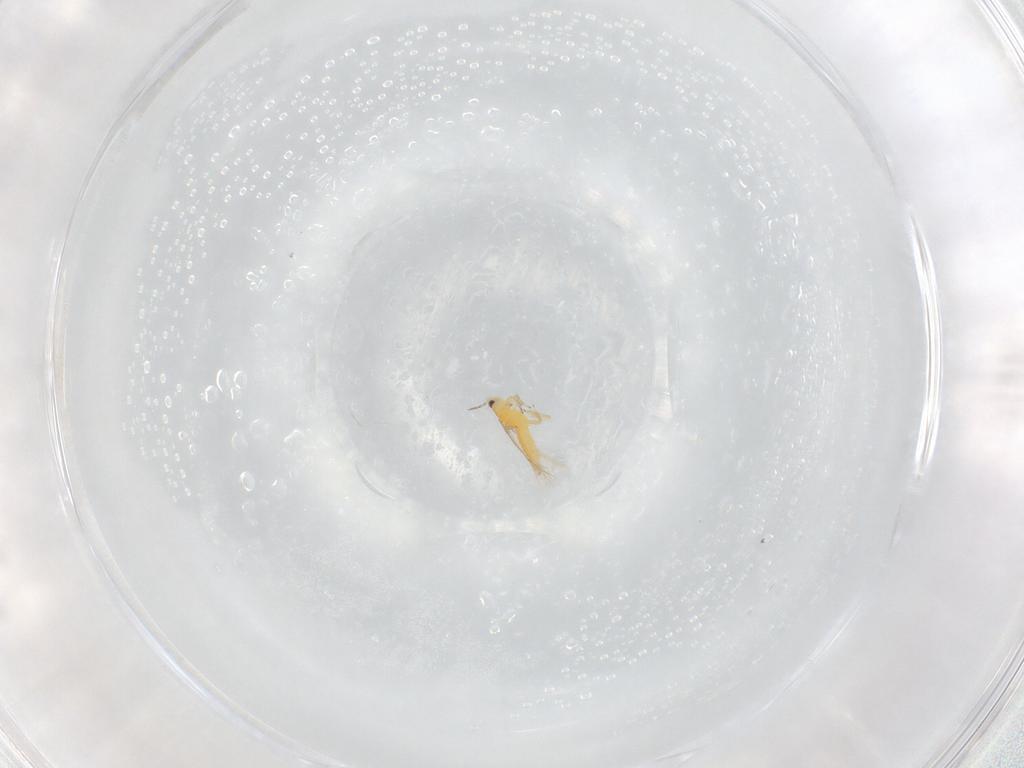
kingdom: Animalia
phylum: Arthropoda
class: Insecta
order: Thysanoptera
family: Thripidae
